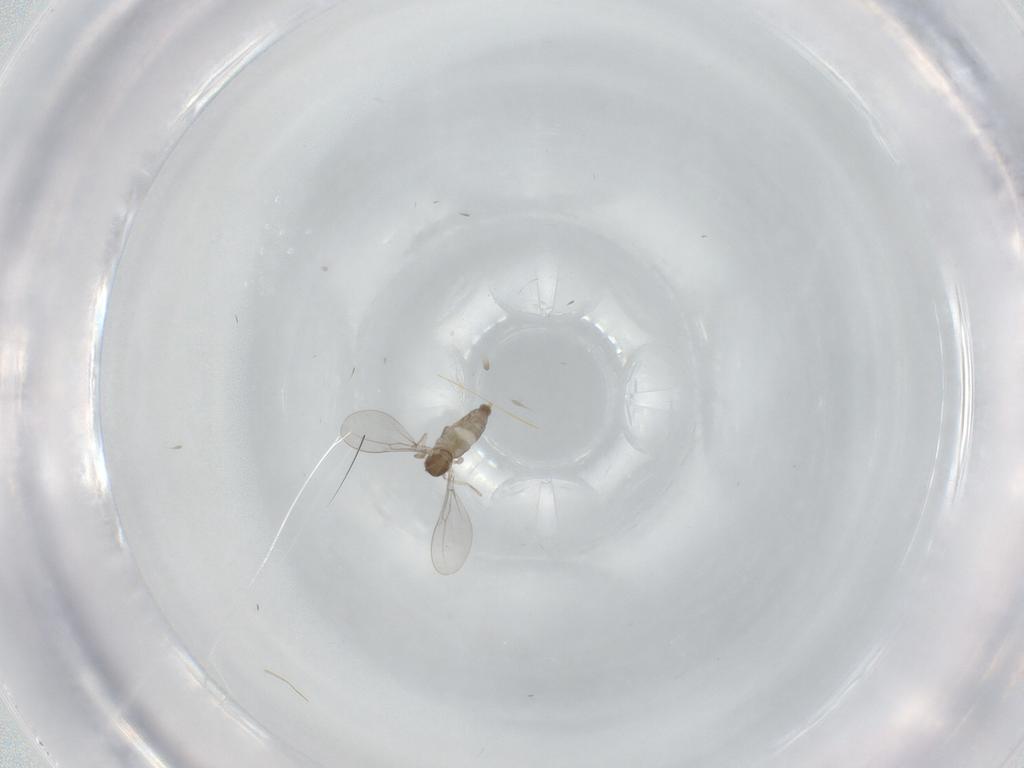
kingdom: Animalia
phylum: Arthropoda
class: Insecta
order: Diptera
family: Cecidomyiidae
